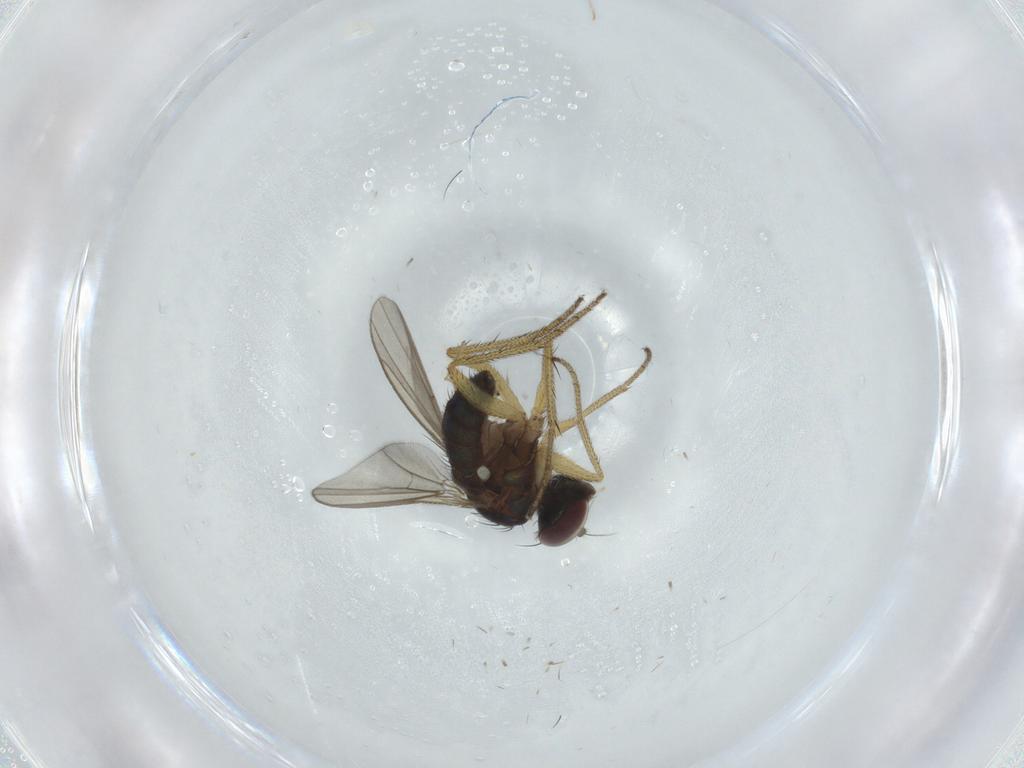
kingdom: Animalia
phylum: Arthropoda
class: Insecta
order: Diptera
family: Dolichopodidae
